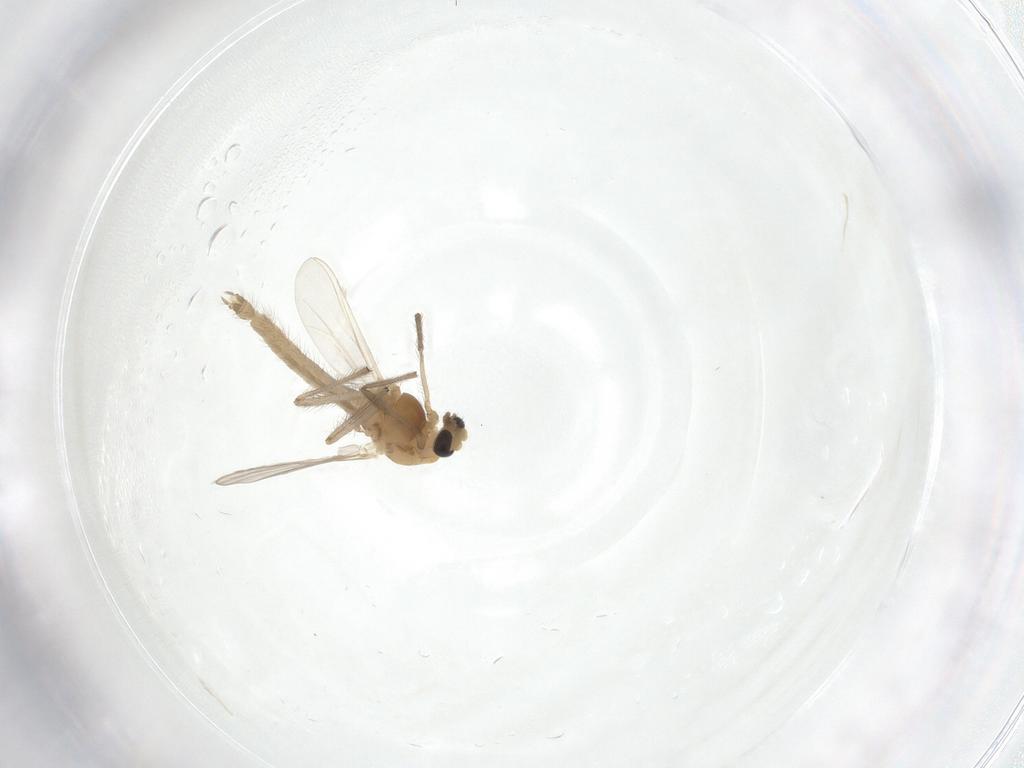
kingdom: Animalia
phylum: Arthropoda
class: Insecta
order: Diptera
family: Chironomidae
